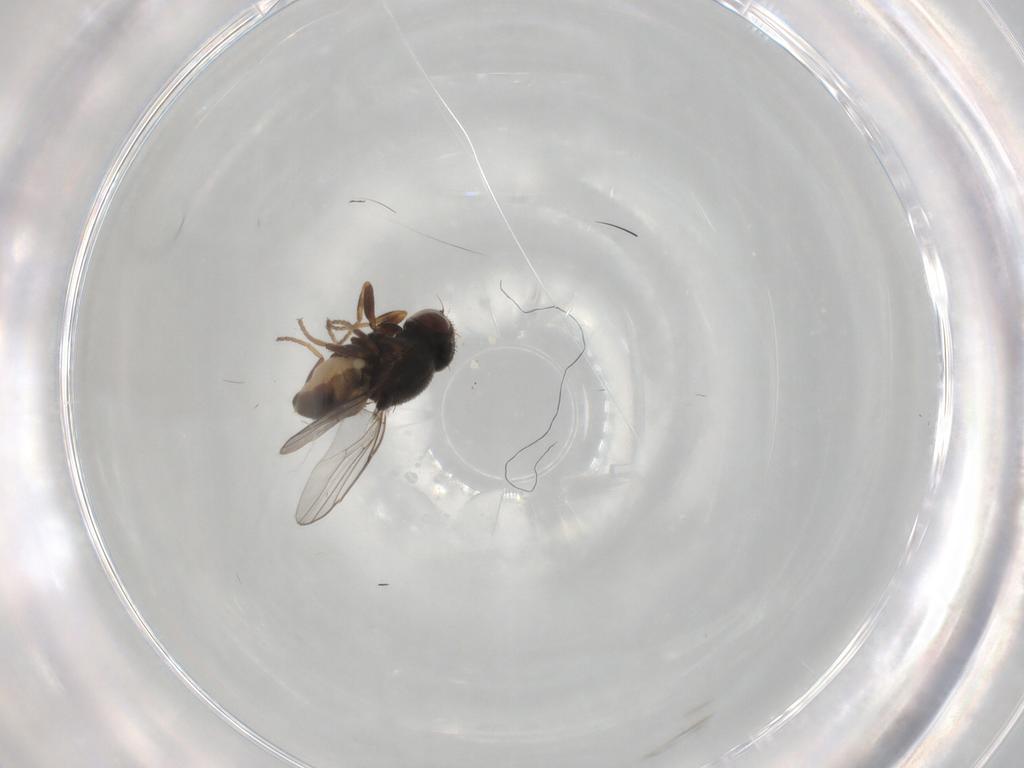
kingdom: Animalia
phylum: Arthropoda
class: Insecta
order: Diptera
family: Chloropidae
